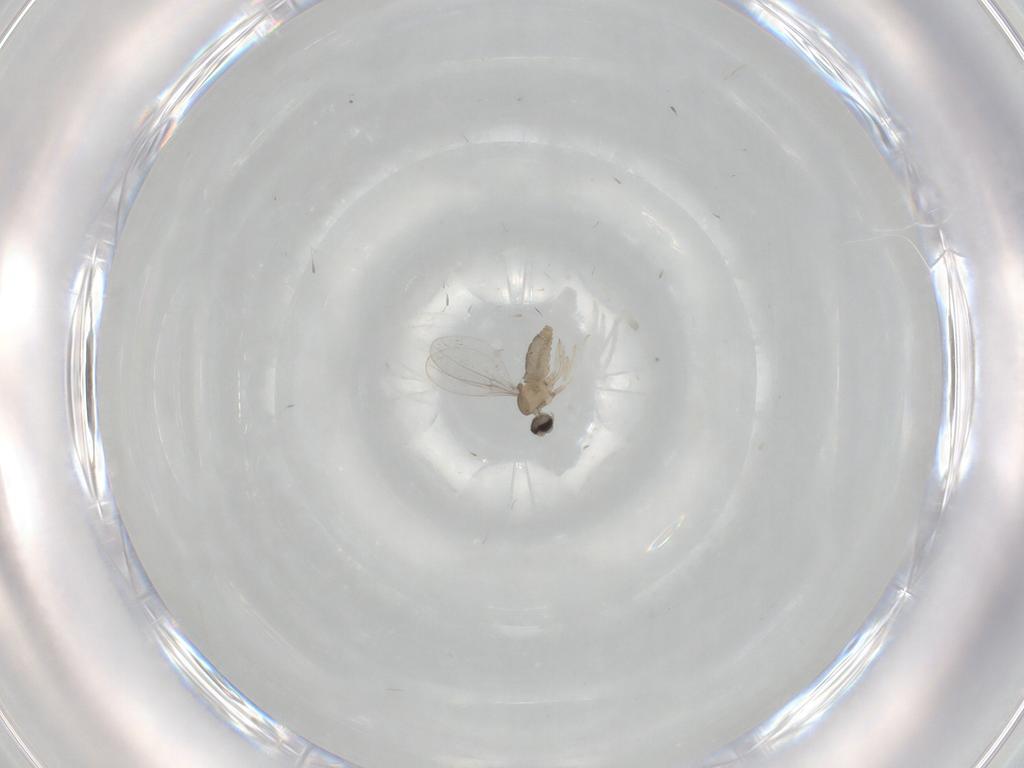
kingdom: Animalia
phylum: Arthropoda
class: Insecta
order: Diptera
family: Cecidomyiidae
